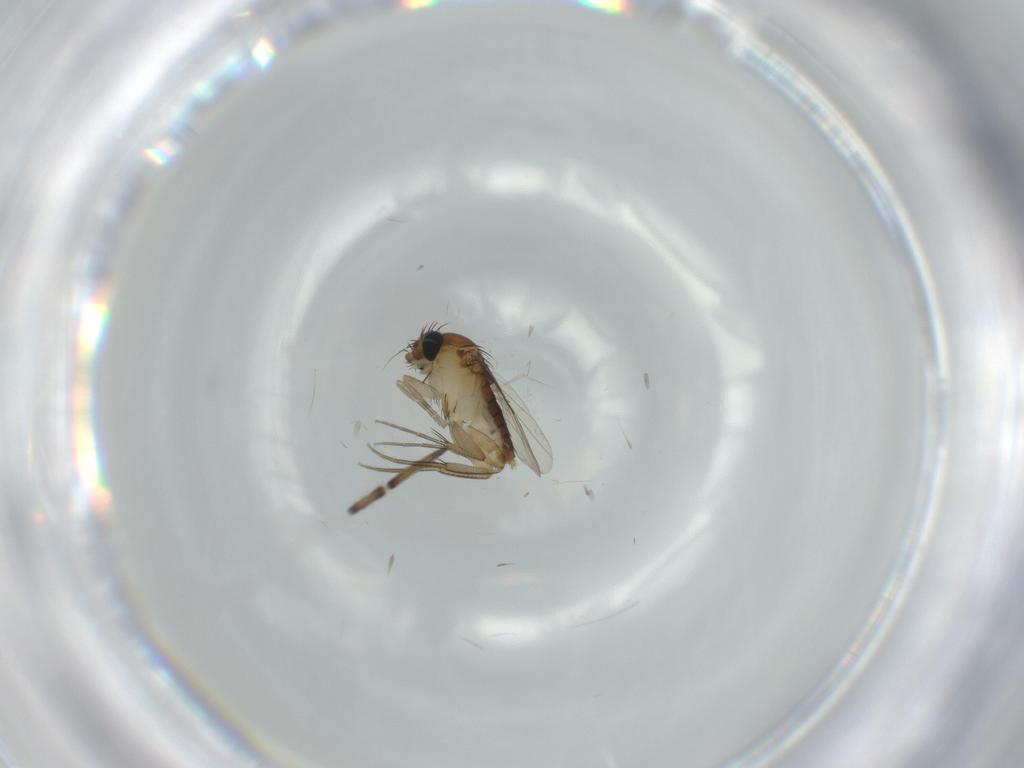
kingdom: Animalia
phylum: Arthropoda
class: Insecta
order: Diptera
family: Phoridae
